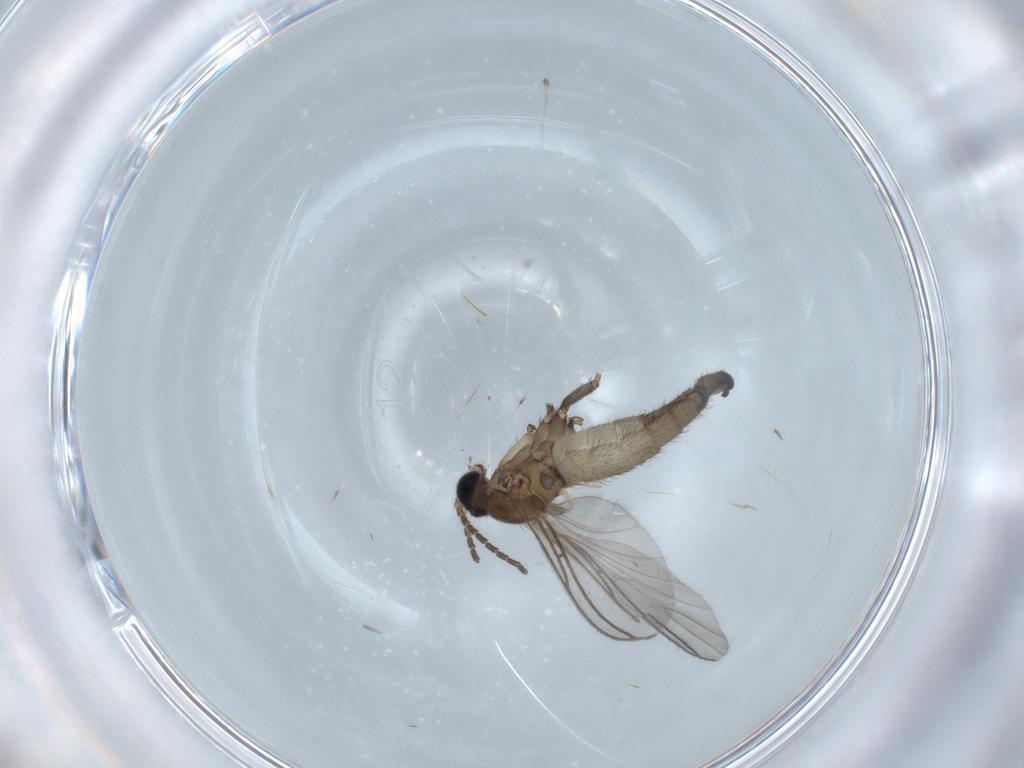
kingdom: Animalia
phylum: Arthropoda
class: Insecta
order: Diptera
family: Sciaridae
